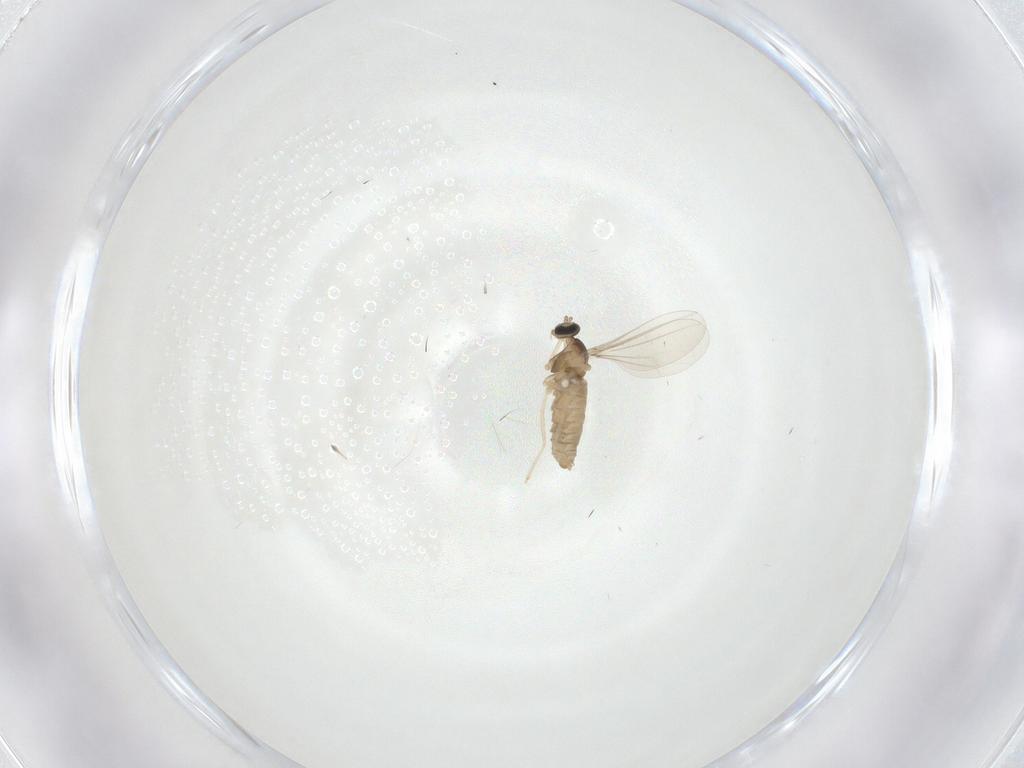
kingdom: Animalia
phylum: Arthropoda
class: Insecta
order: Diptera
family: Cecidomyiidae
